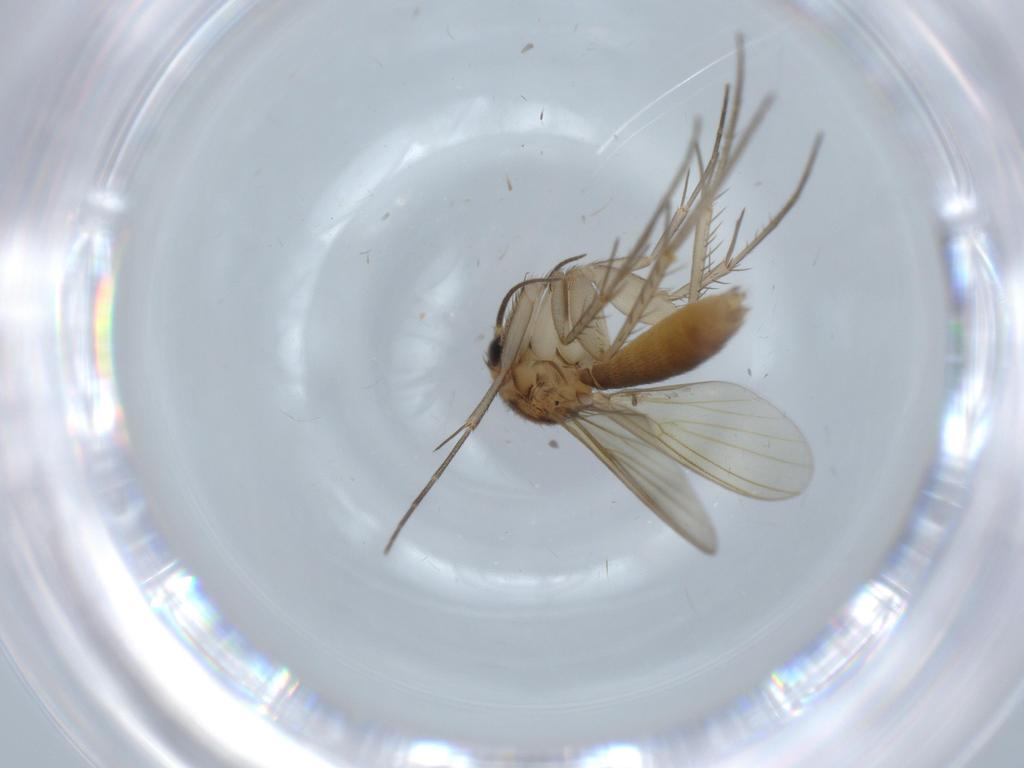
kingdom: Animalia
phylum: Arthropoda
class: Insecta
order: Diptera
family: Mycetophilidae
